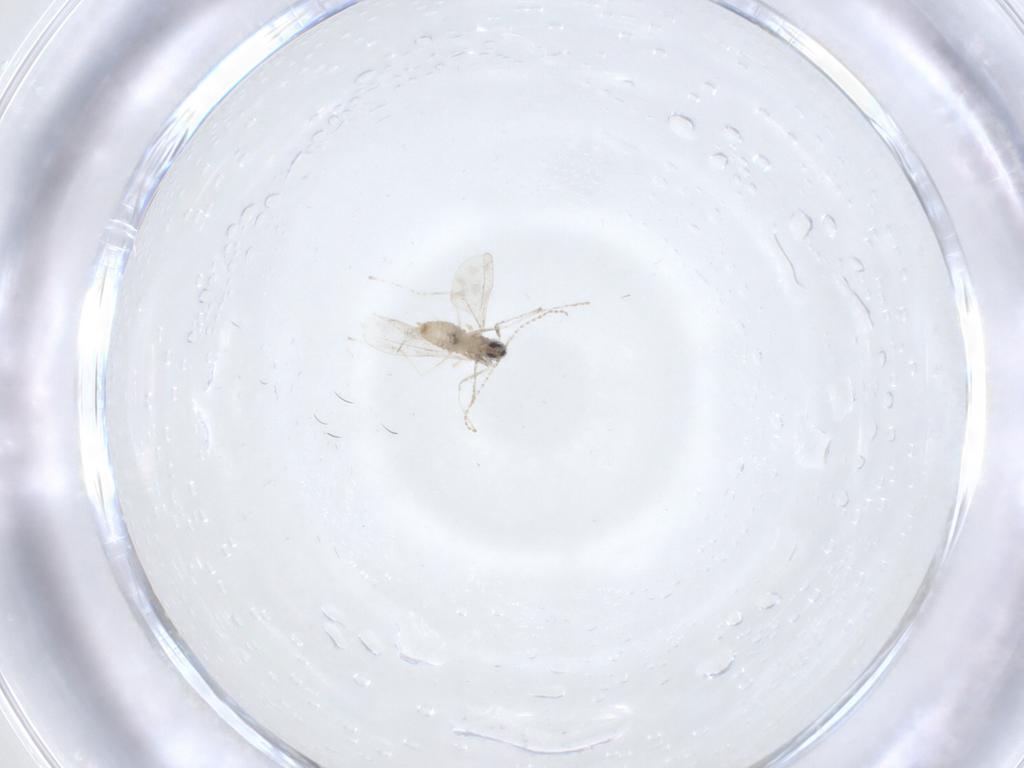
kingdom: Animalia
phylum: Arthropoda
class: Insecta
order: Diptera
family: Cecidomyiidae
